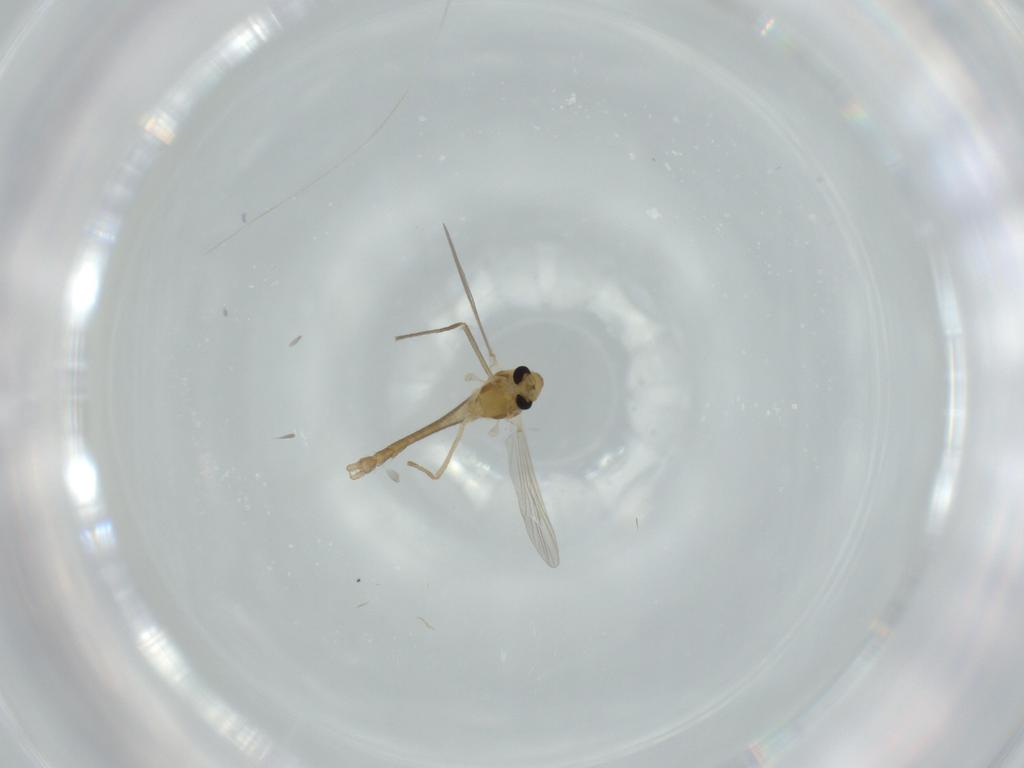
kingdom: Animalia
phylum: Arthropoda
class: Insecta
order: Diptera
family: Chironomidae
